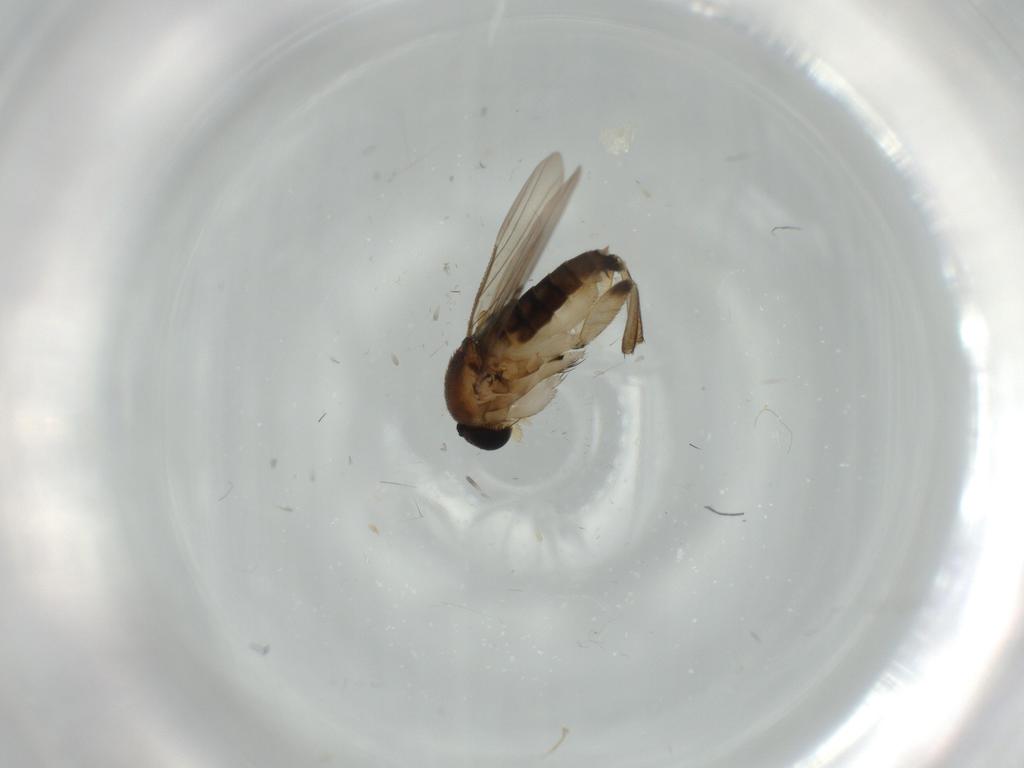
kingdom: Animalia
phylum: Arthropoda
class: Insecta
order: Diptera
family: Phoridae
